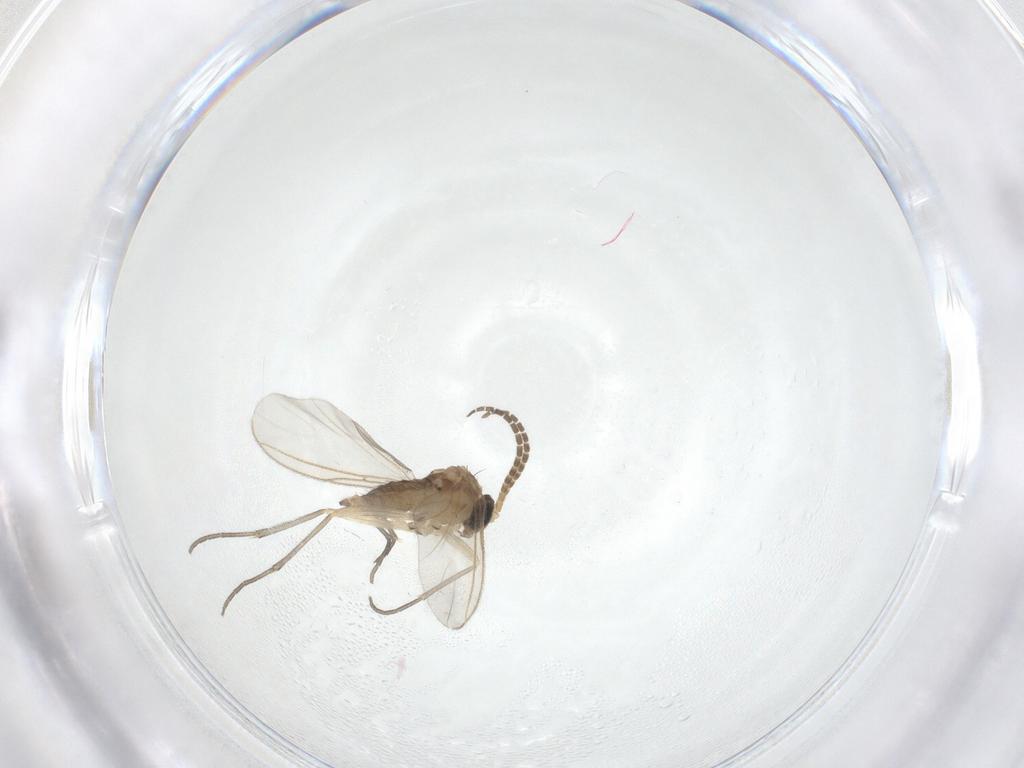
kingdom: Animalia
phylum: Arthropoda
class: Insecta
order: Diptera
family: Sciaridae
